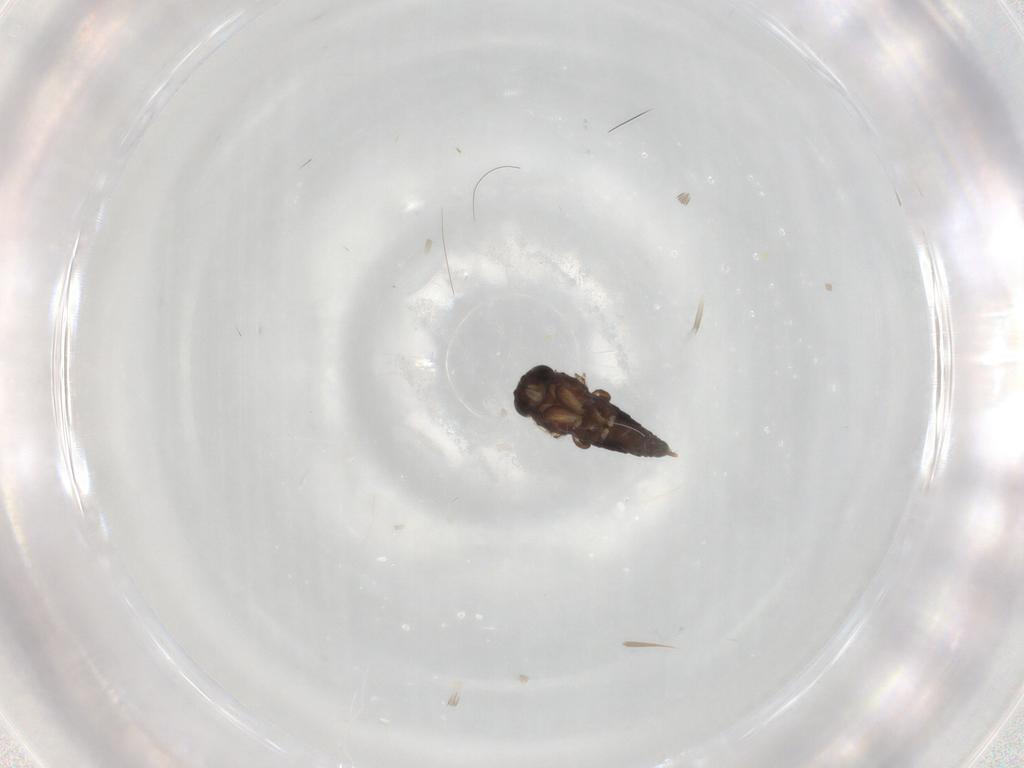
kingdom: Animalia
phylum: Arthropoda
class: Insecta
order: Diptera
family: Phoridae
